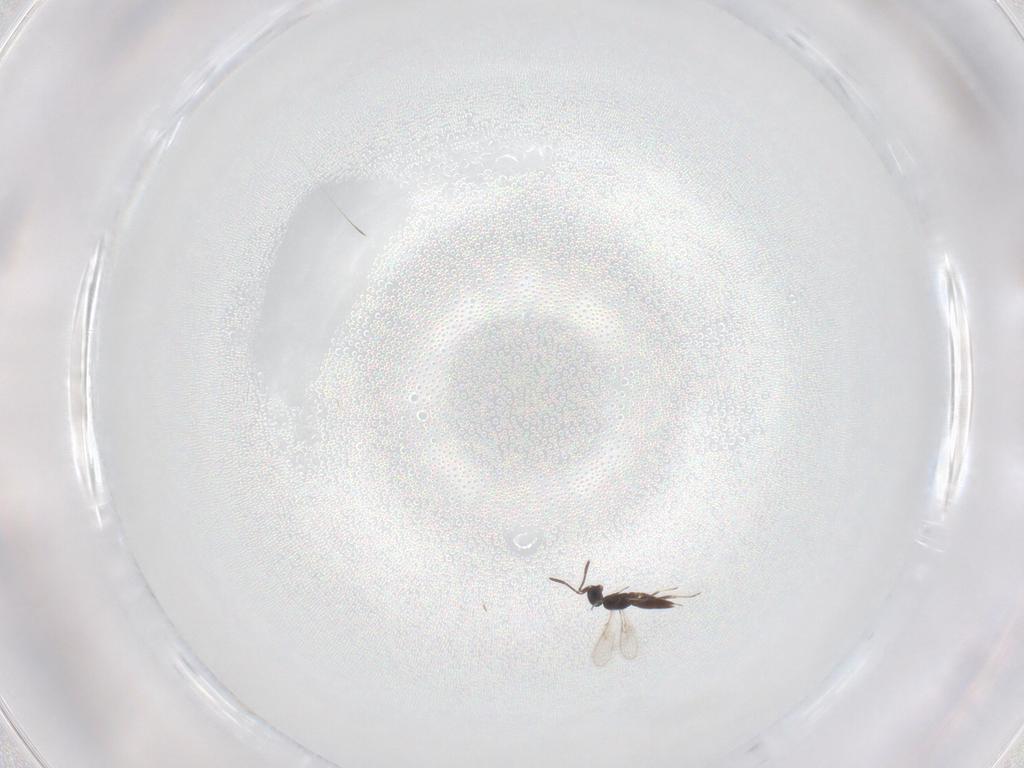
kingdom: Animalia
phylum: Arthropoda
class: Insecta
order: Hymenoptera
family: Scelionidae
